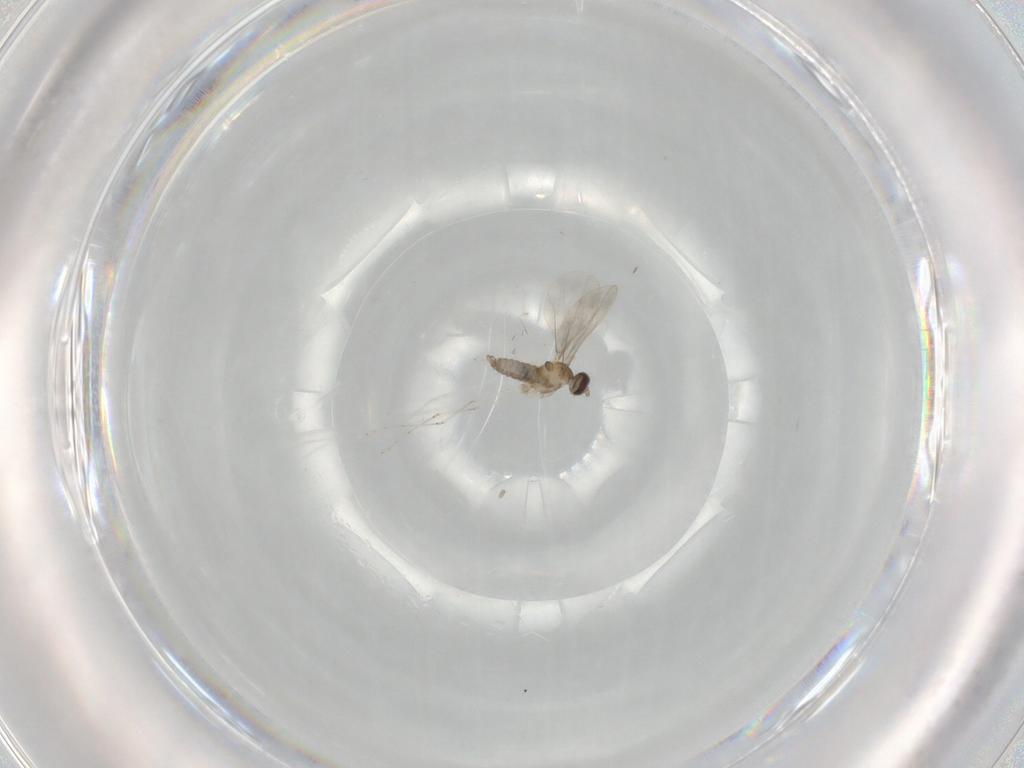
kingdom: Animalia
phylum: Arthropoda
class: Insecta
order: Diptera
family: Cecidomyiidae
